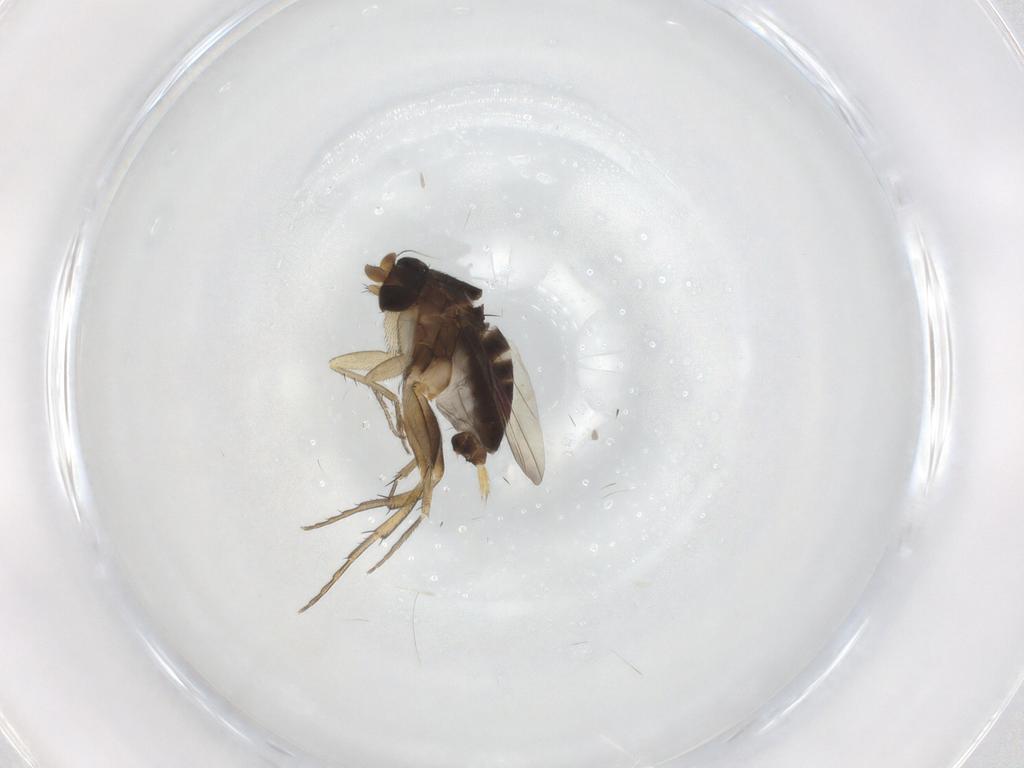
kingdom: Animalia
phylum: Arthropoda
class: Insecta
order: Diptera
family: Phoridae
